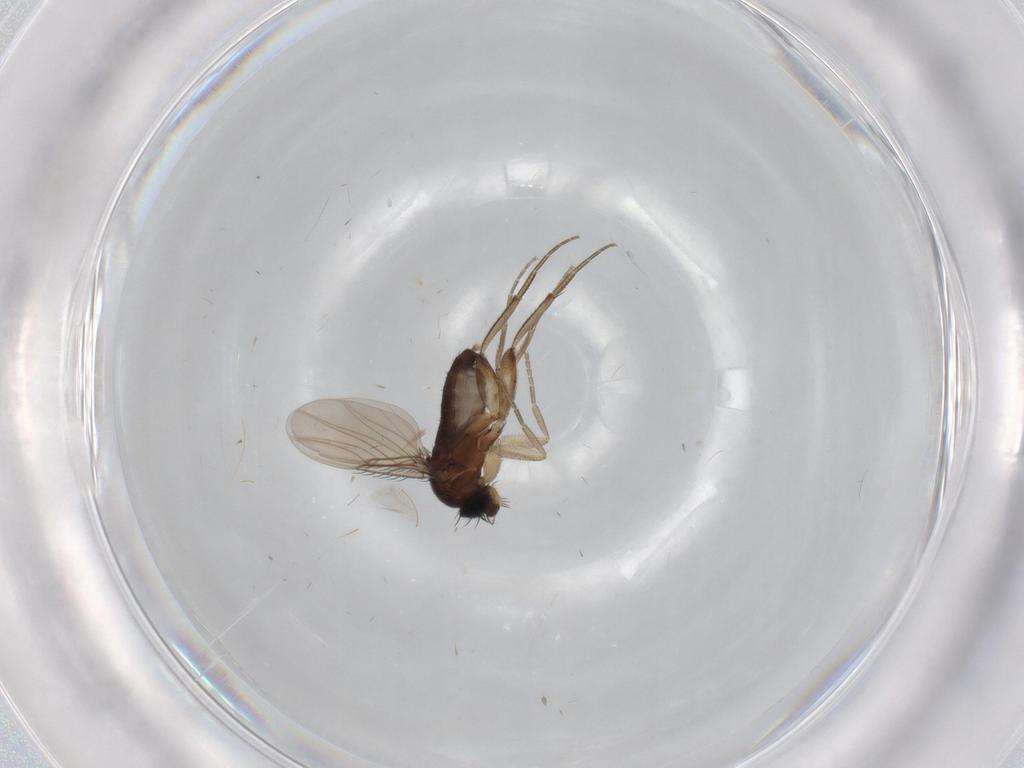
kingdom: Animalia
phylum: Arthropoda
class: Insecta
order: Diptera
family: Phoridae
